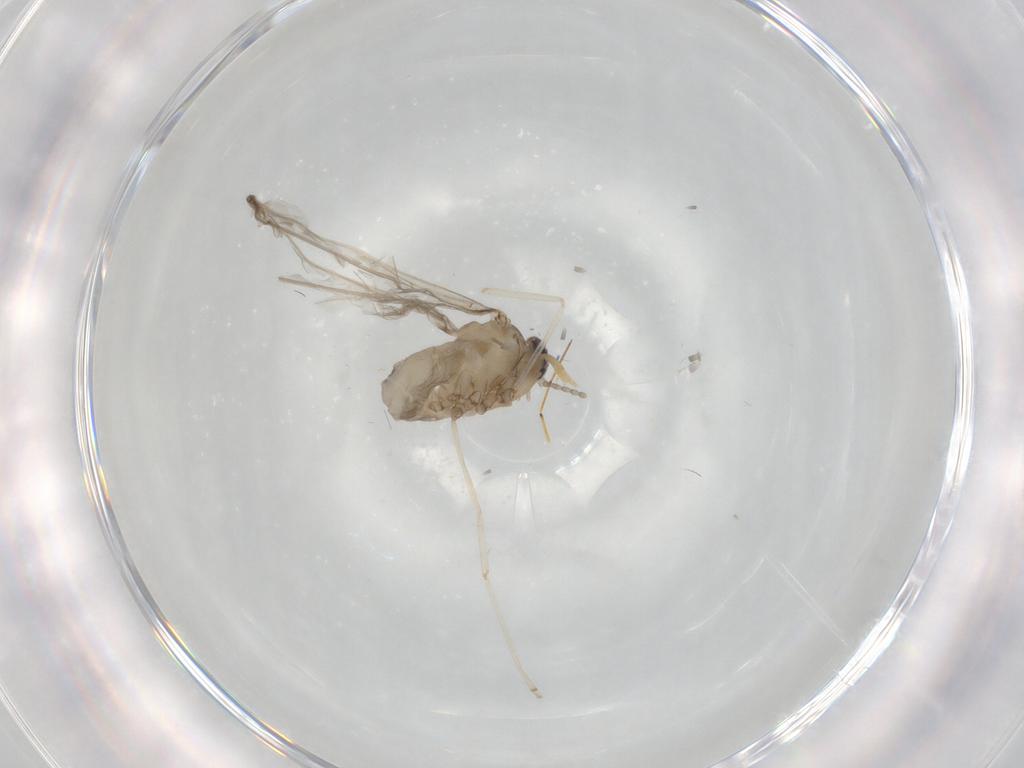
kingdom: Animalia
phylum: Arthropoda
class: Insecta
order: Diptera
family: Cecidomyiidae
